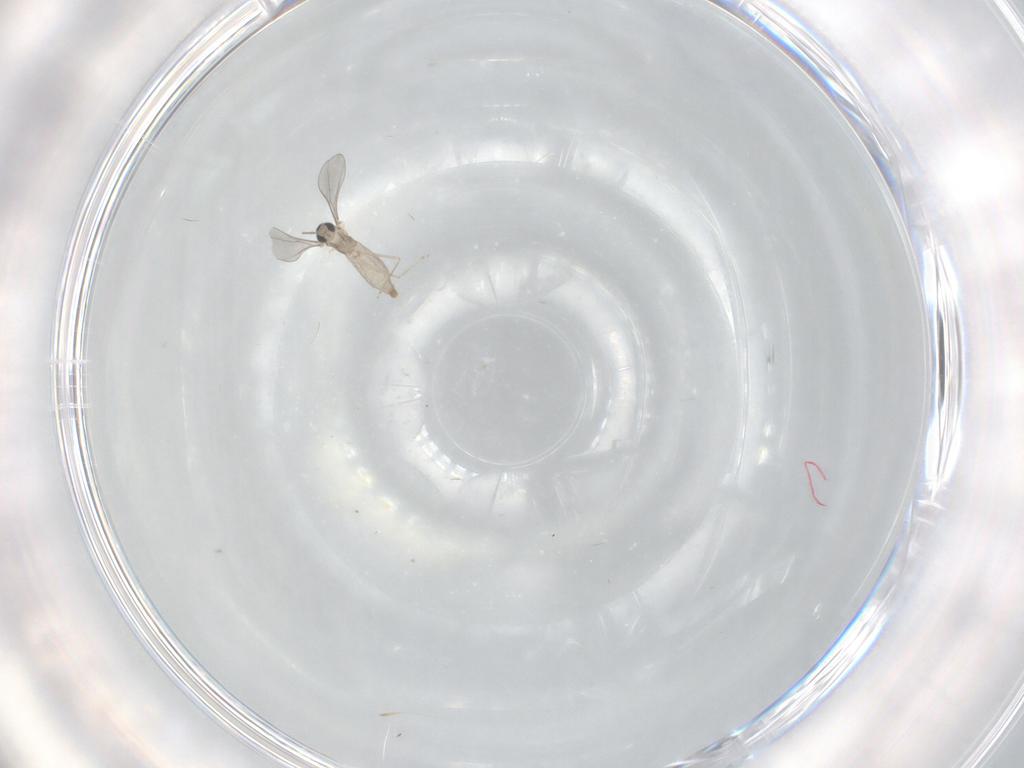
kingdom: Animalia
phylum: Arthropoda
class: Insecta
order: Diptera
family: Cecidomyiidae
